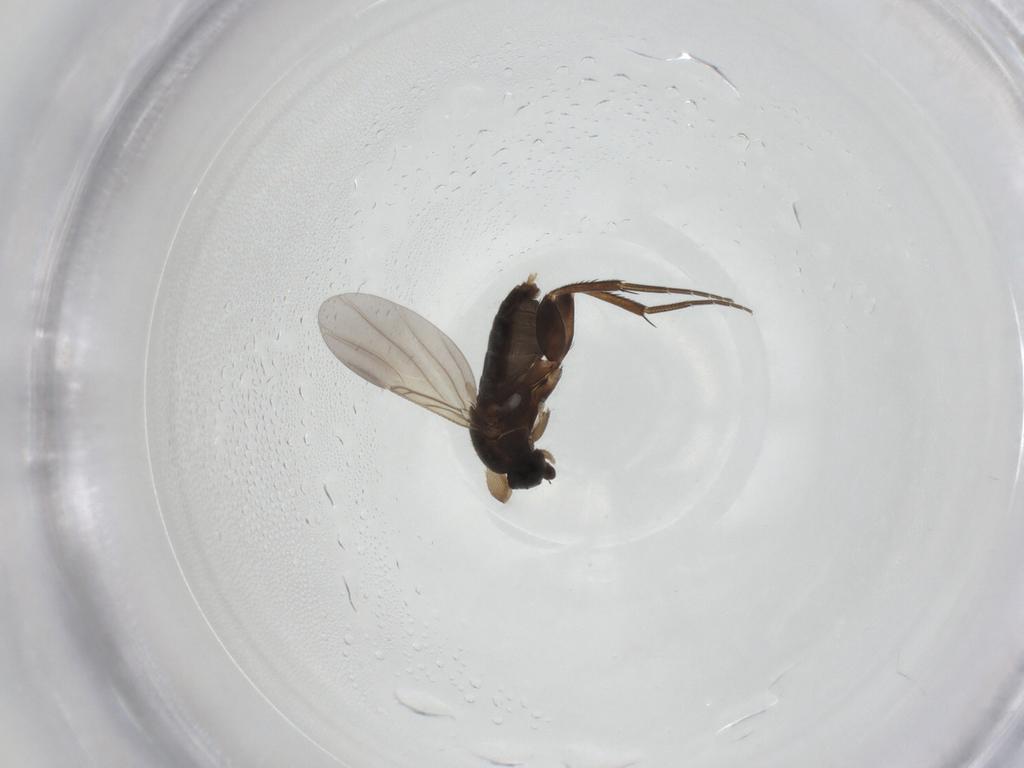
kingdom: Animalia
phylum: Arthropoda
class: Insecta
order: Diptera
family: Phoridae
